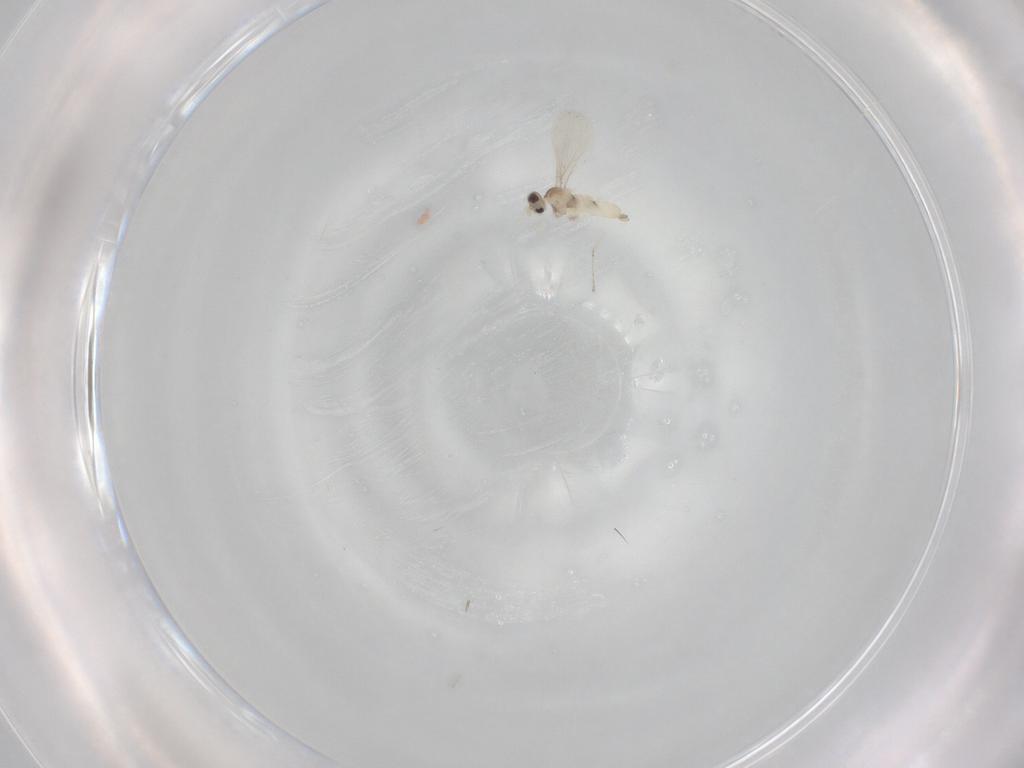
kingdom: Animalia
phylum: Arthropoda
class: Insecta
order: Diptera
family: Cecidomyiidae
